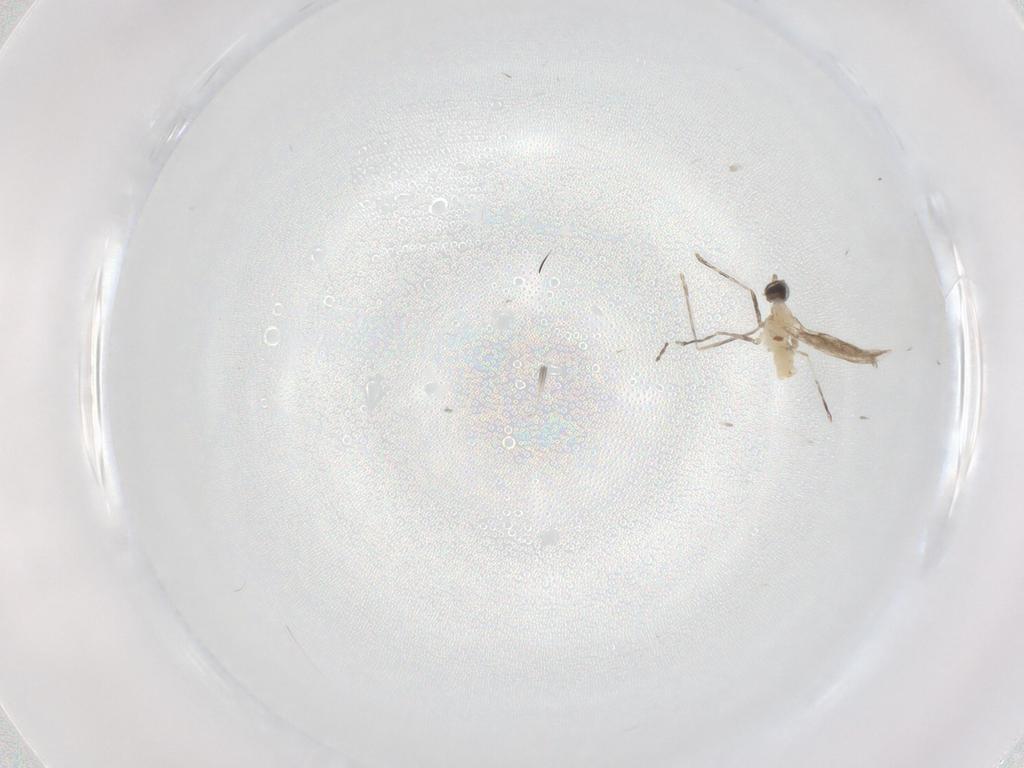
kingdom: Animalia
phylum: Arthropoda
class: Insecta
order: Diptera
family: Cecidomyiidae
